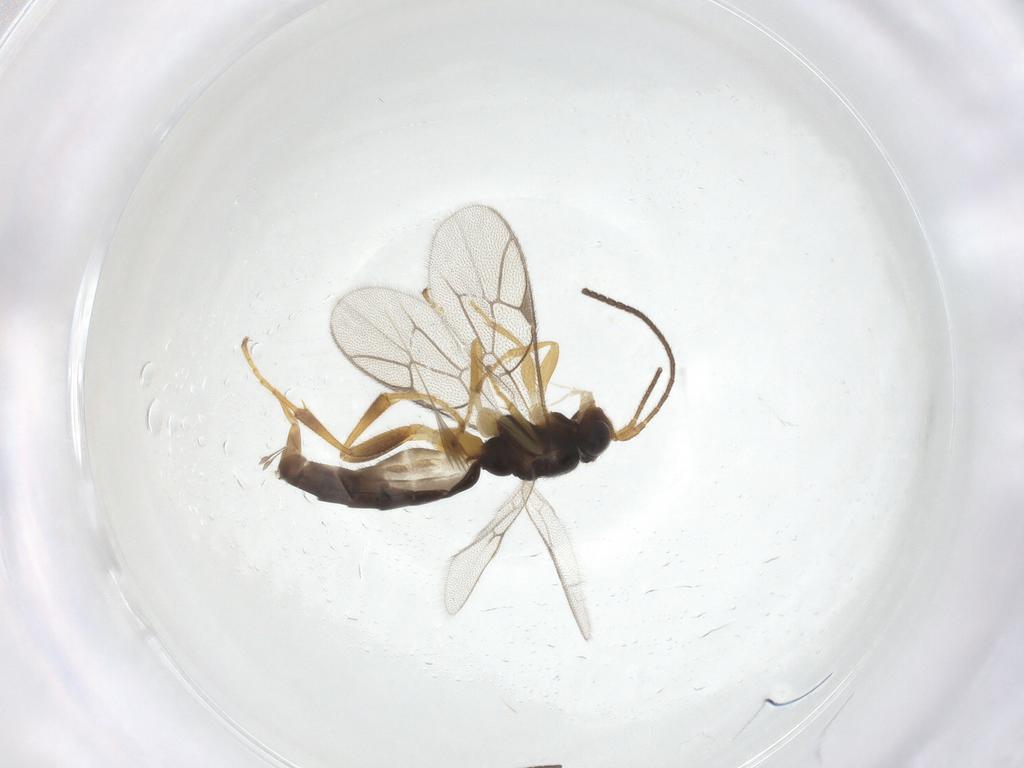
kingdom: Animalia
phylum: Arthropoda
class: Insecta
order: Hymenoptera
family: Ichneumonidae
